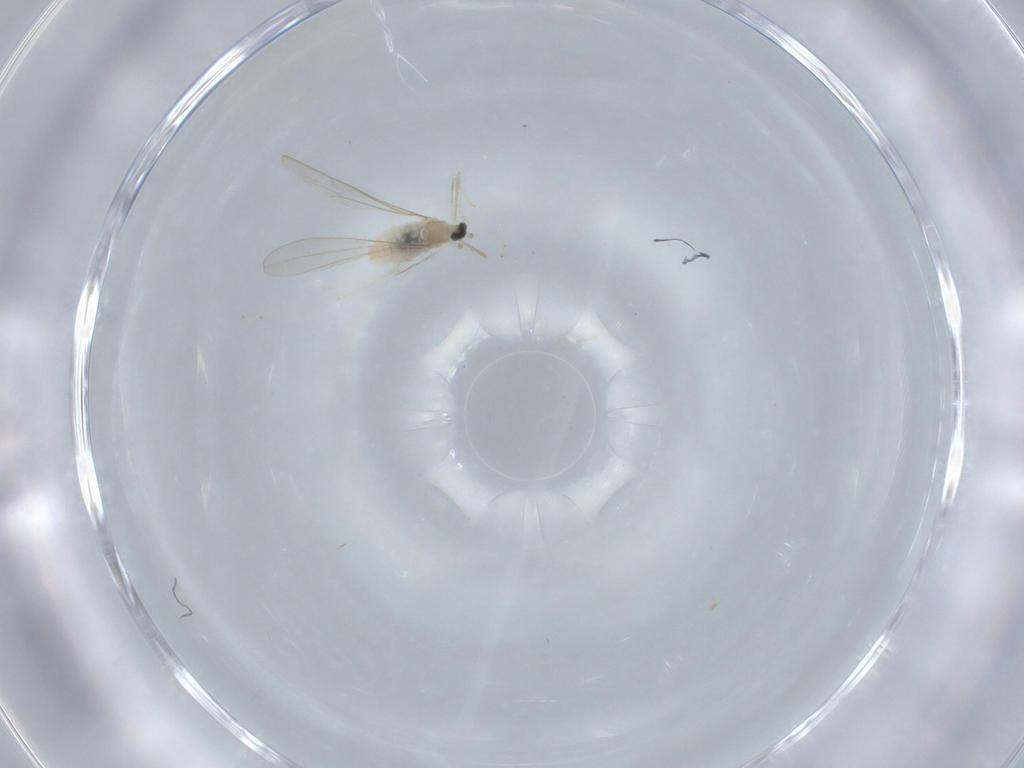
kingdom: Animalia
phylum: Arthropoda
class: Insecta
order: Diptera
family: Cecidomyiidae
